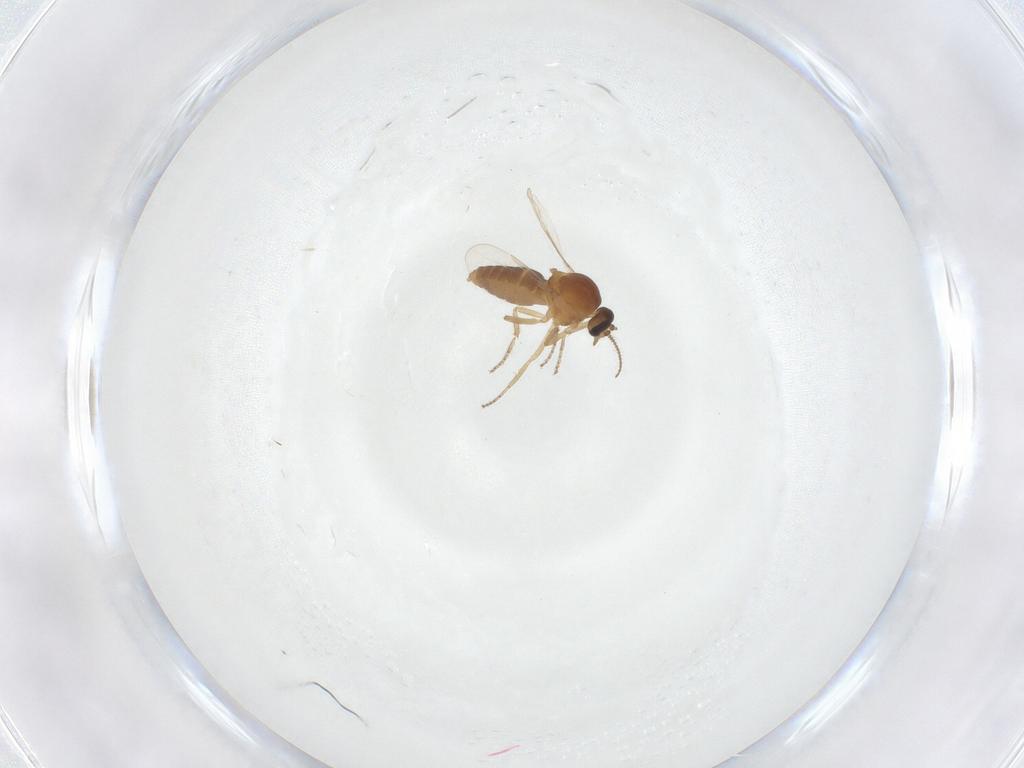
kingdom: Animalia
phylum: Arthropoda
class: Insecta
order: Diptera
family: Ceratopogonidae
